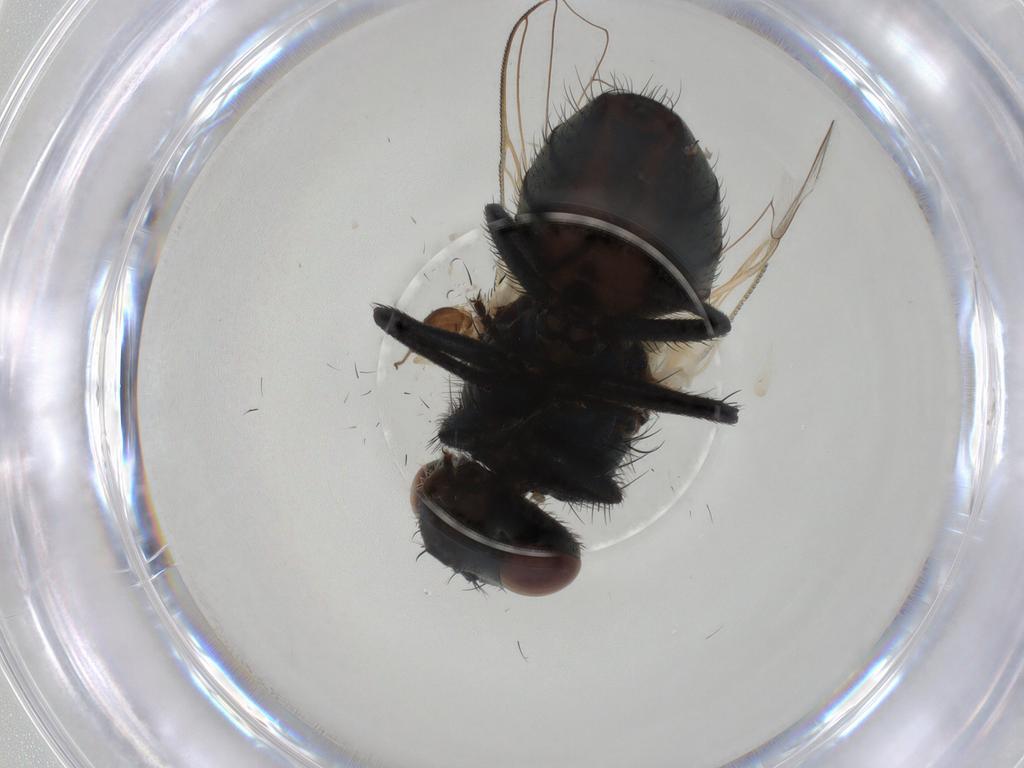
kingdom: Animalia
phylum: Arthropoda
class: Insecta
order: Diptera
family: Ceratopogonidae
